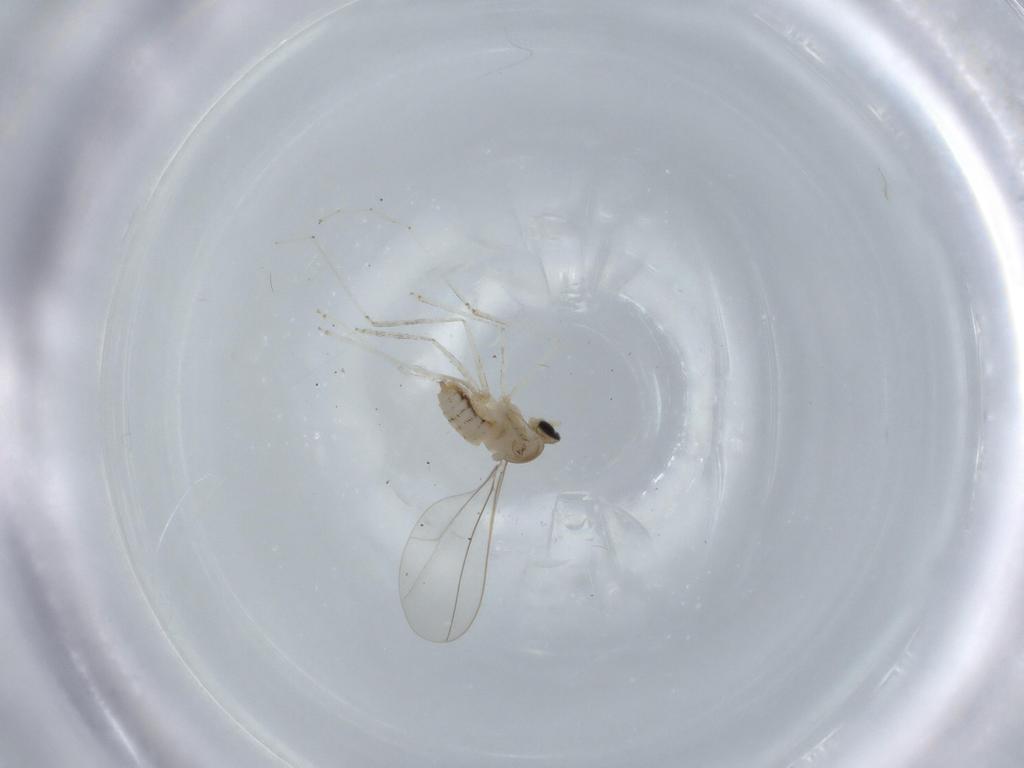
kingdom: Animalia
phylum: Arthropoda
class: Insecta
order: Diptera
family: Cecidomyiidae
